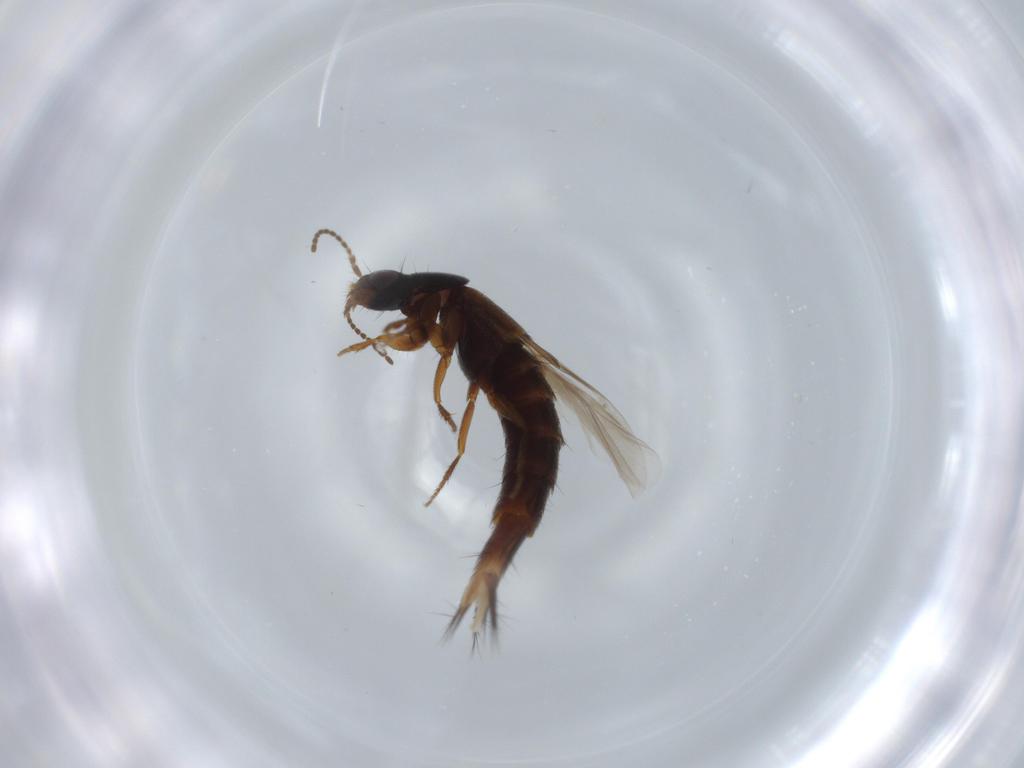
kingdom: Animalia
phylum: Arthropoda
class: Insecta
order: Coleoptera
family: Staphylinidae
